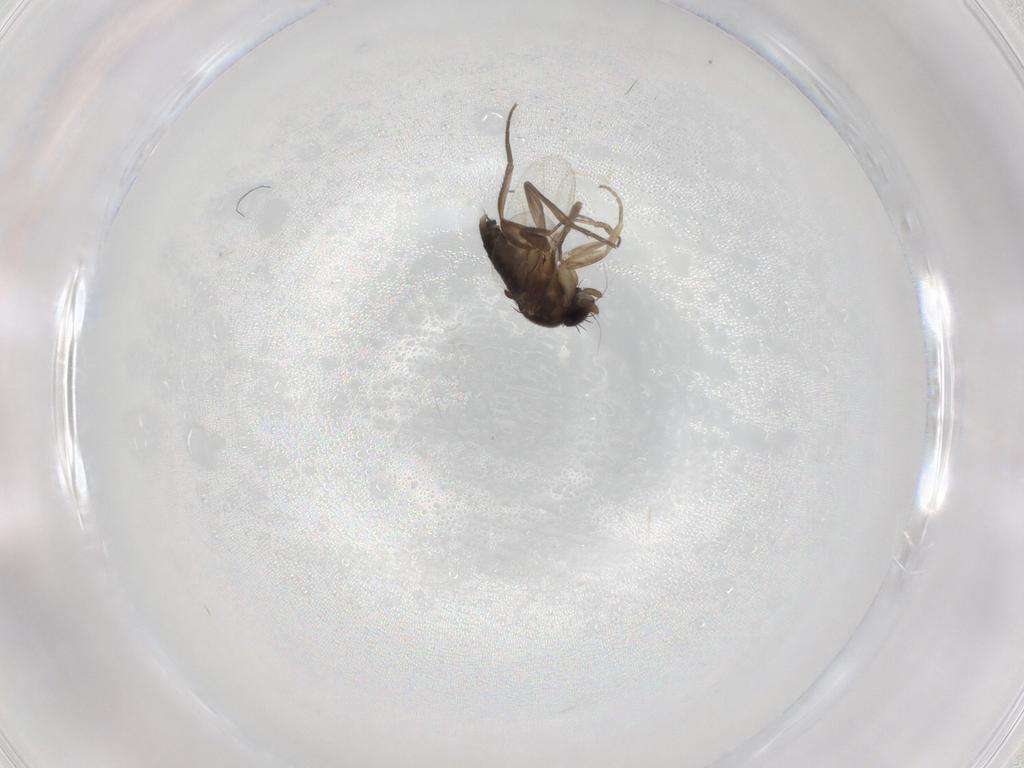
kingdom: Animalia
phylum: Arthropoda
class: Insecta
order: Diptera
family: Phoridae
